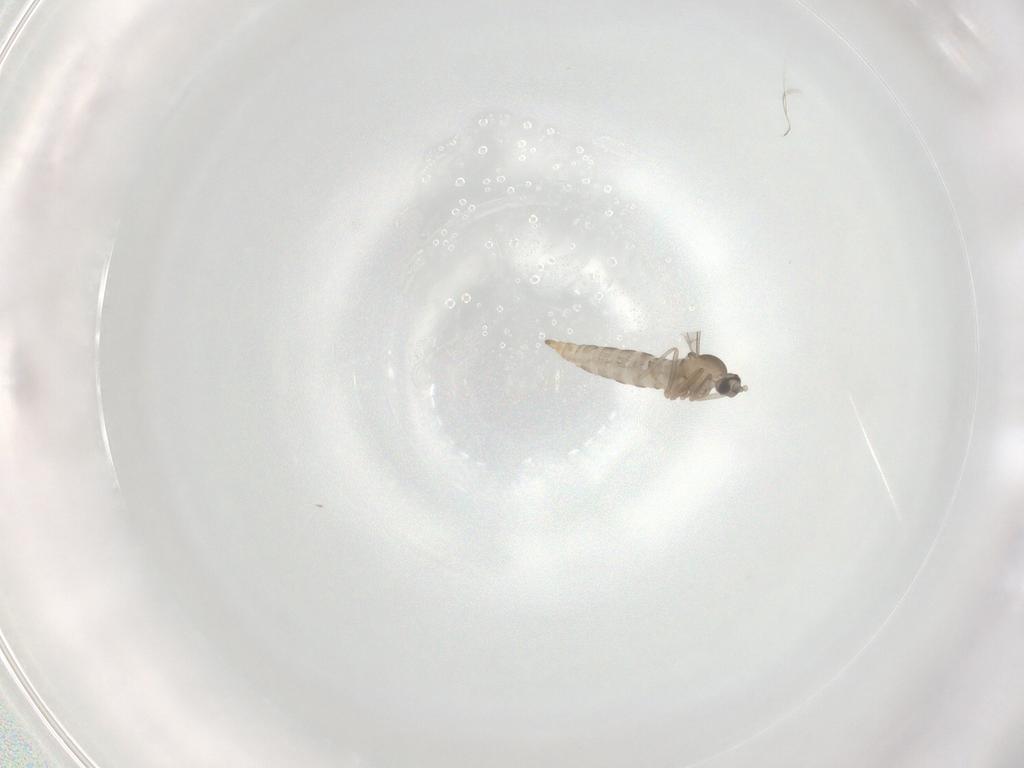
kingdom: Animalia
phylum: Arthropoda
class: Insecta
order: Diptera
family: Cecidomyiidae
